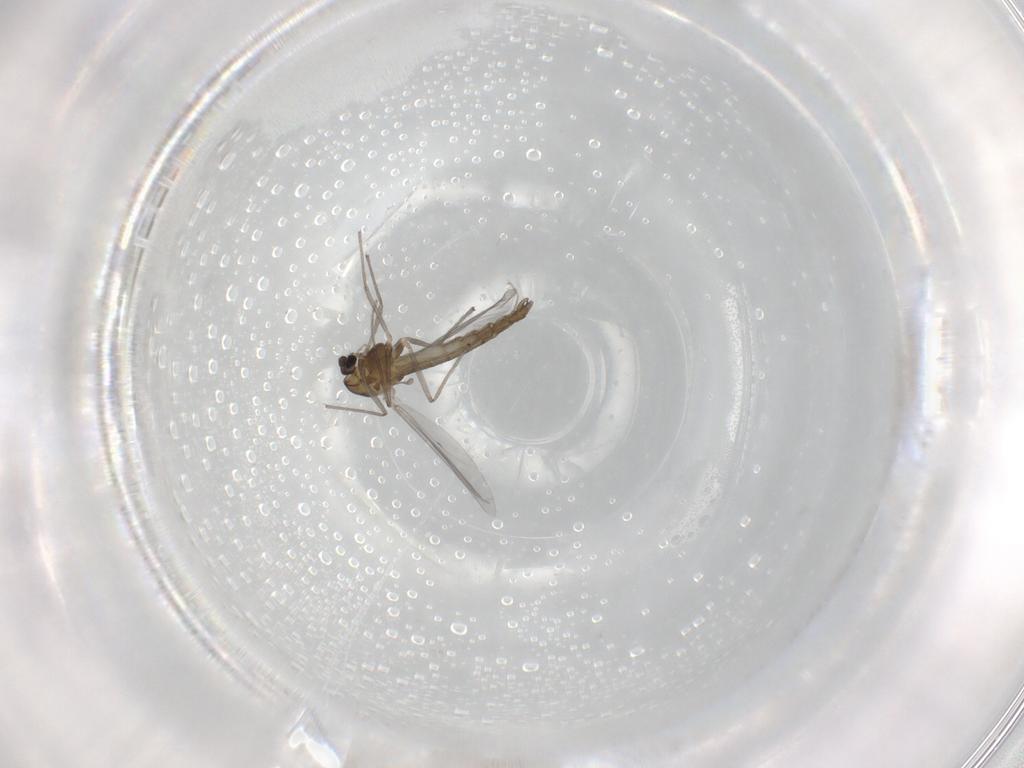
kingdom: Animalia
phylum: Arthropoda
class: Insecta
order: Diptera
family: Chironomidae
